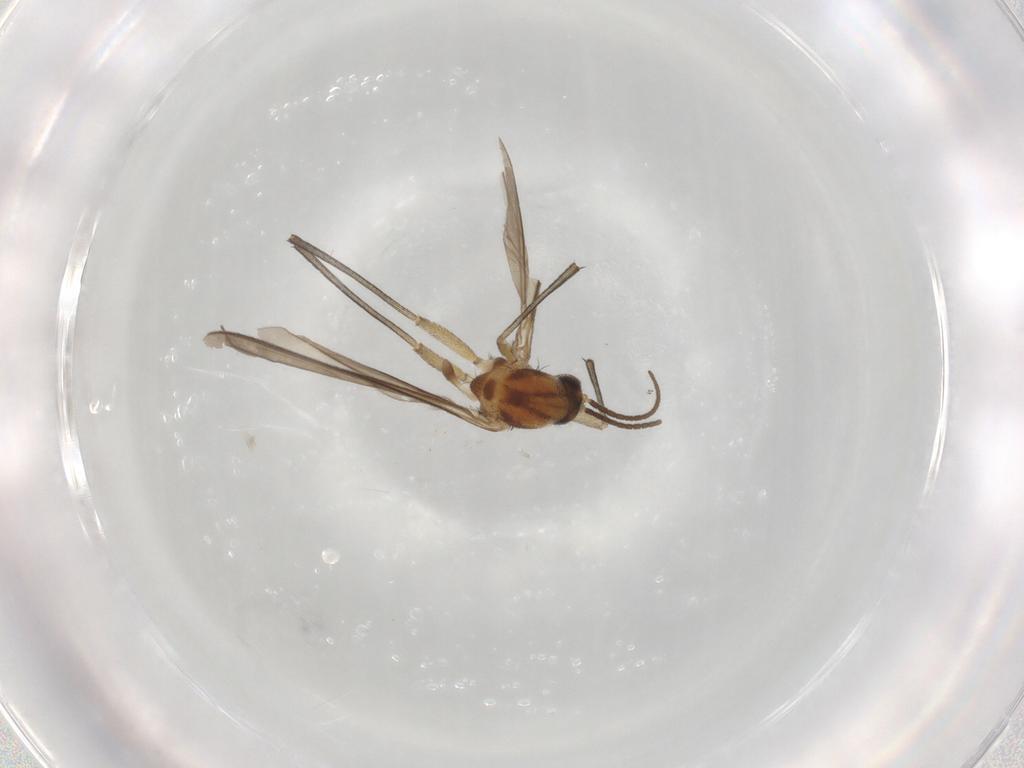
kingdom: Animalia
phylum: Arthropoda
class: Insecta
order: Diptera
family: Keroplatidae
